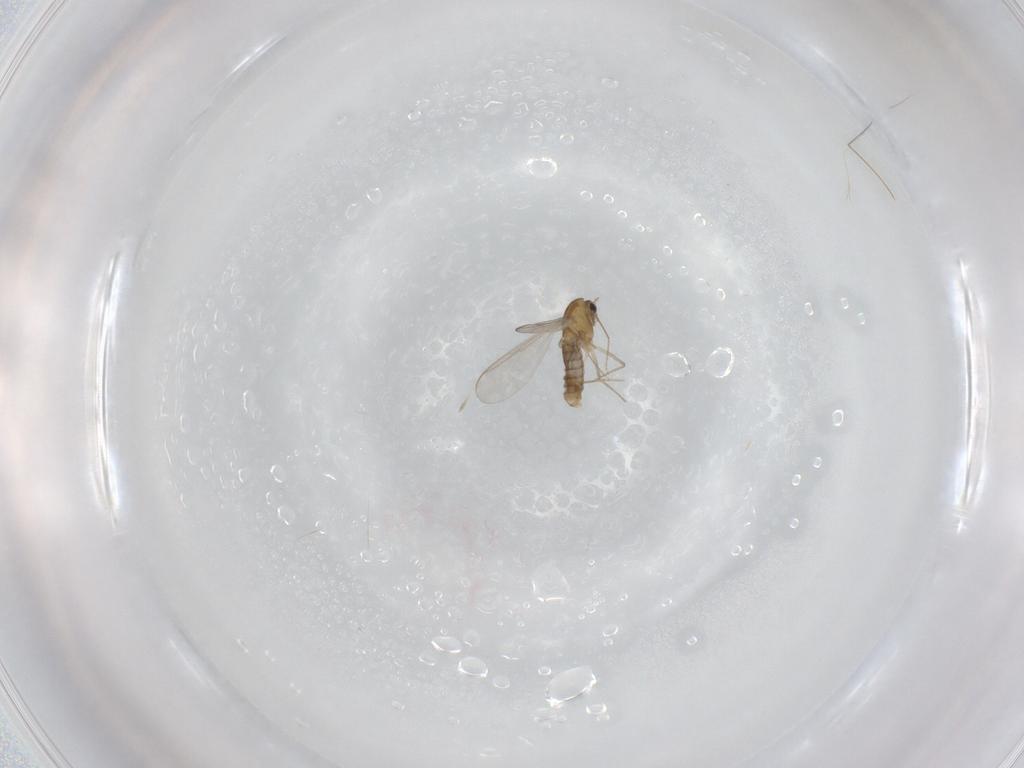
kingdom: Animalia
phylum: Arthropoda
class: Insecta
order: Diptera
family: Chironomidae
